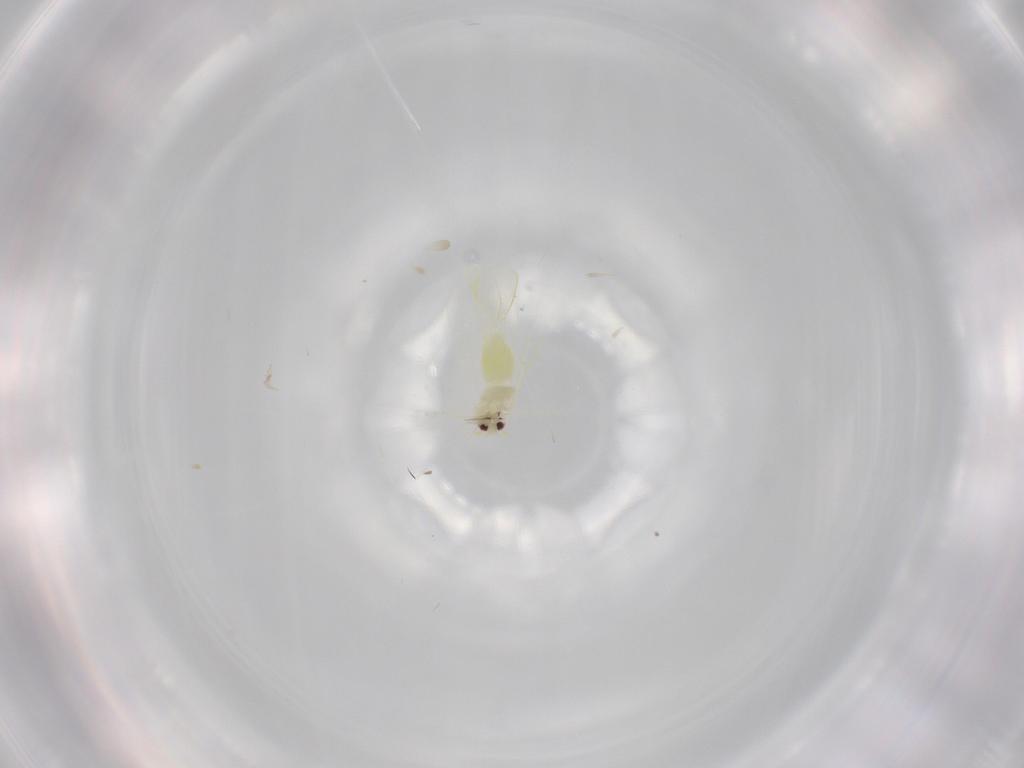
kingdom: Animalia
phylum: Arthropoda
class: Insecta
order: Hemiptera
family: Aleyrodidae
